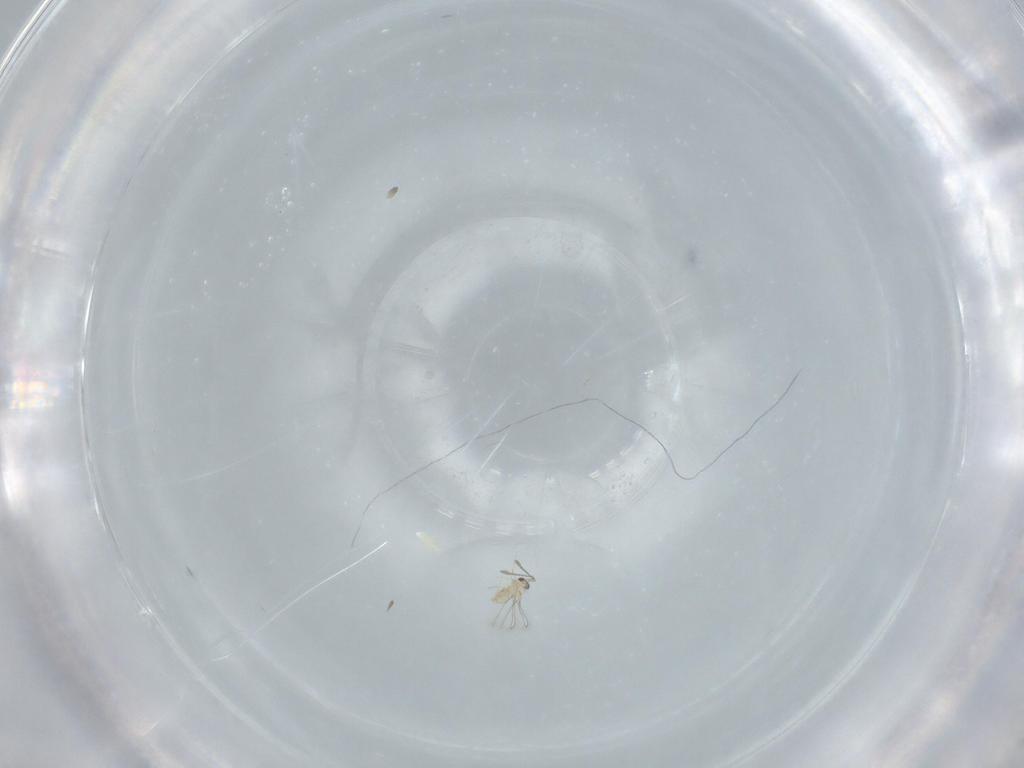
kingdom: Animalia
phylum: Arthropoda
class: Insecta
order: Hymenoptera
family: Mymaridae
